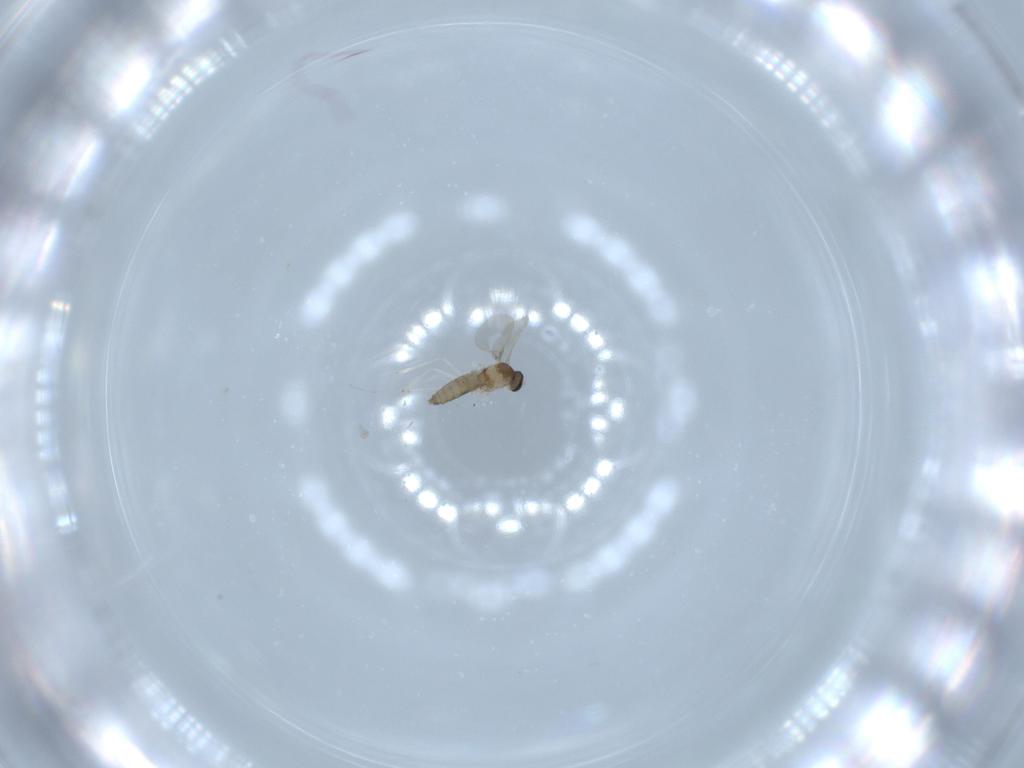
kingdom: Animalia
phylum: Arthropoda
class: Insecta
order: Diptera
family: Cecidomyiidae
